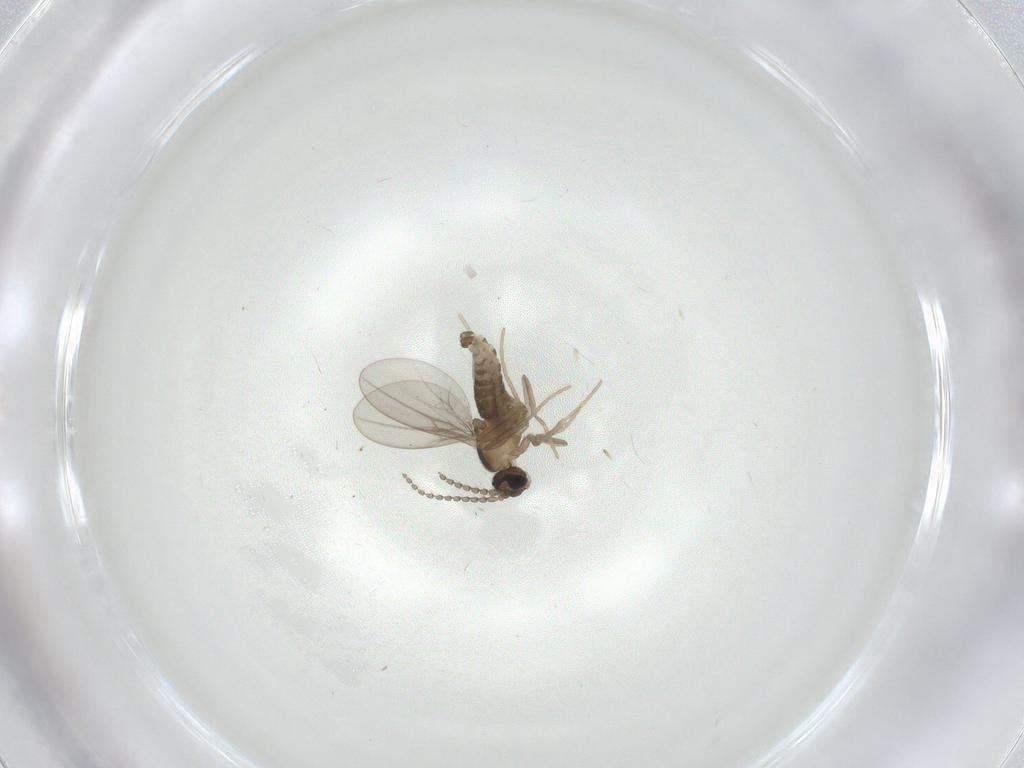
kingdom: Animalia
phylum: Arthropoda
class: Insecta
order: Diptera
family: Cecidomyiidae
